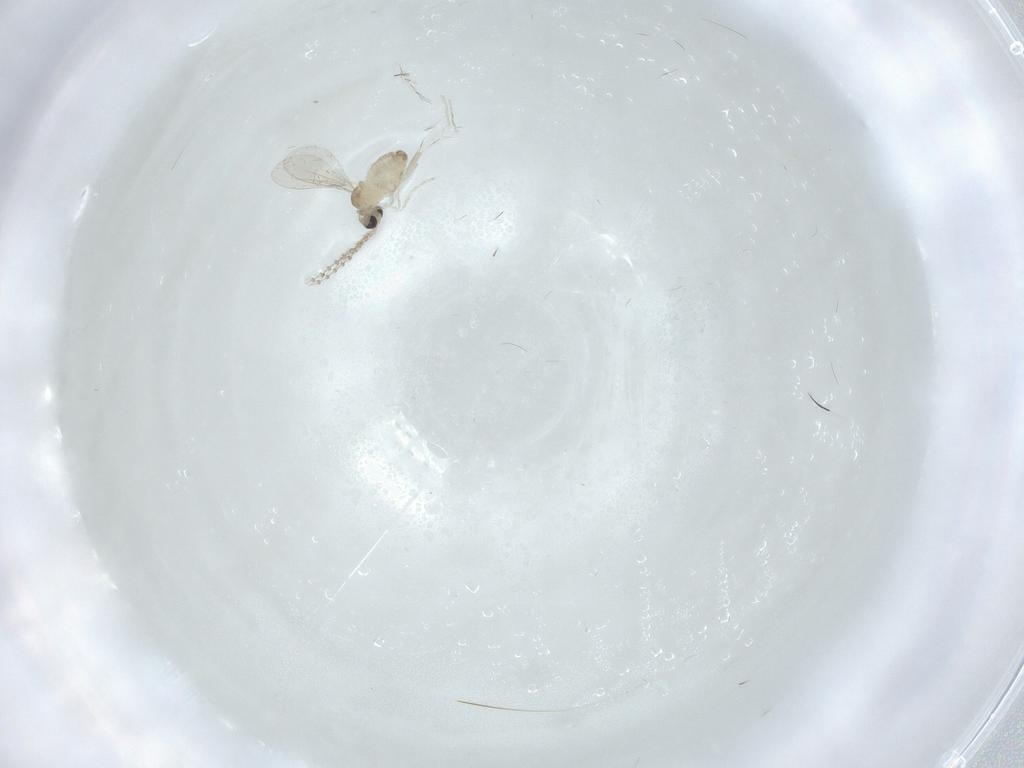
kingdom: Animalia
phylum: Arthropoda
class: Insecta
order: Diptera
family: Cecidomyiidae
